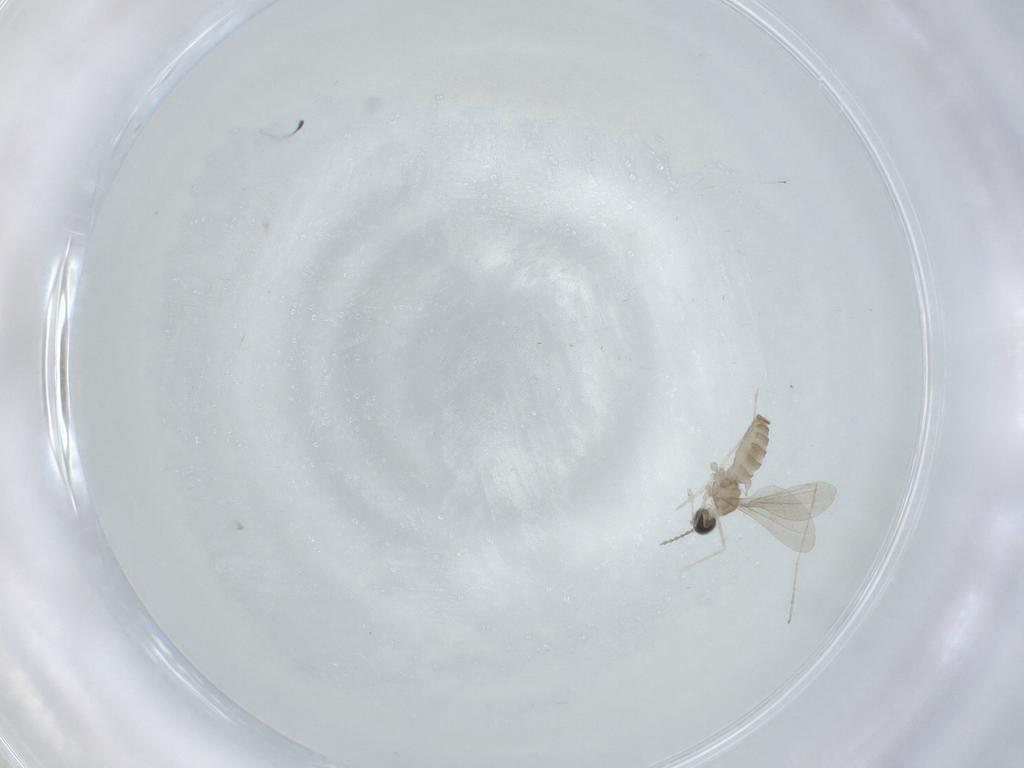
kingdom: Animalia
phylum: Arthropoda
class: Insecta
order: Diptera
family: Cecidomyiidae
